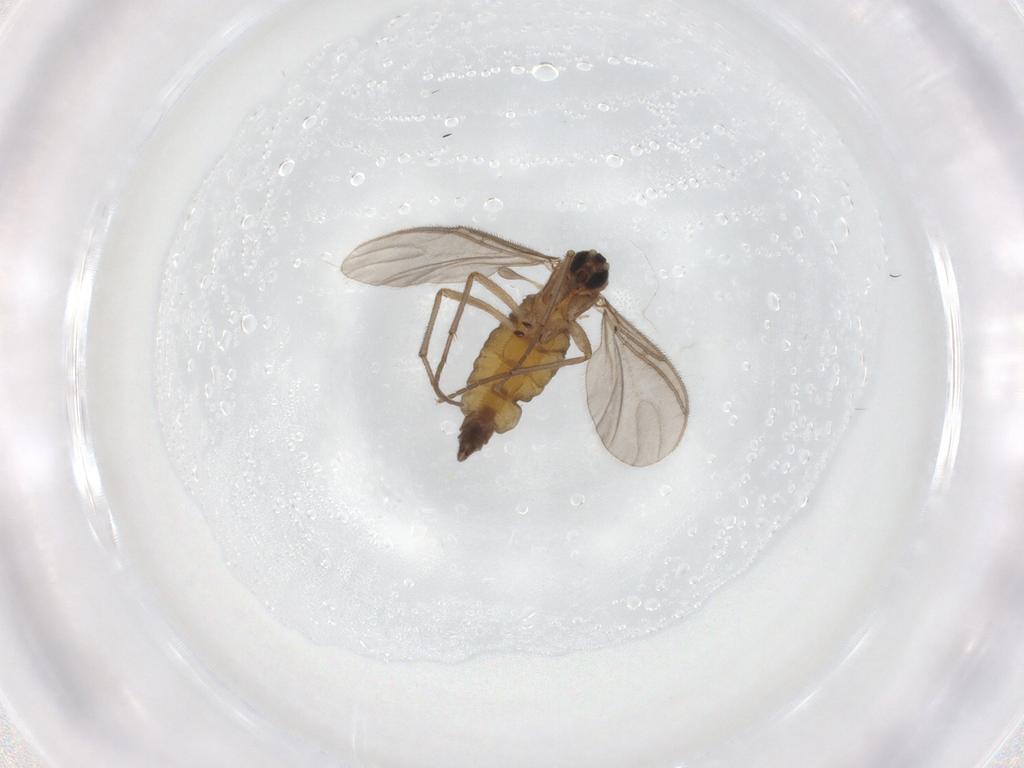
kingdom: Animalia
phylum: Arthropoda
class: Insecta
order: Diptera
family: Sciaridae
